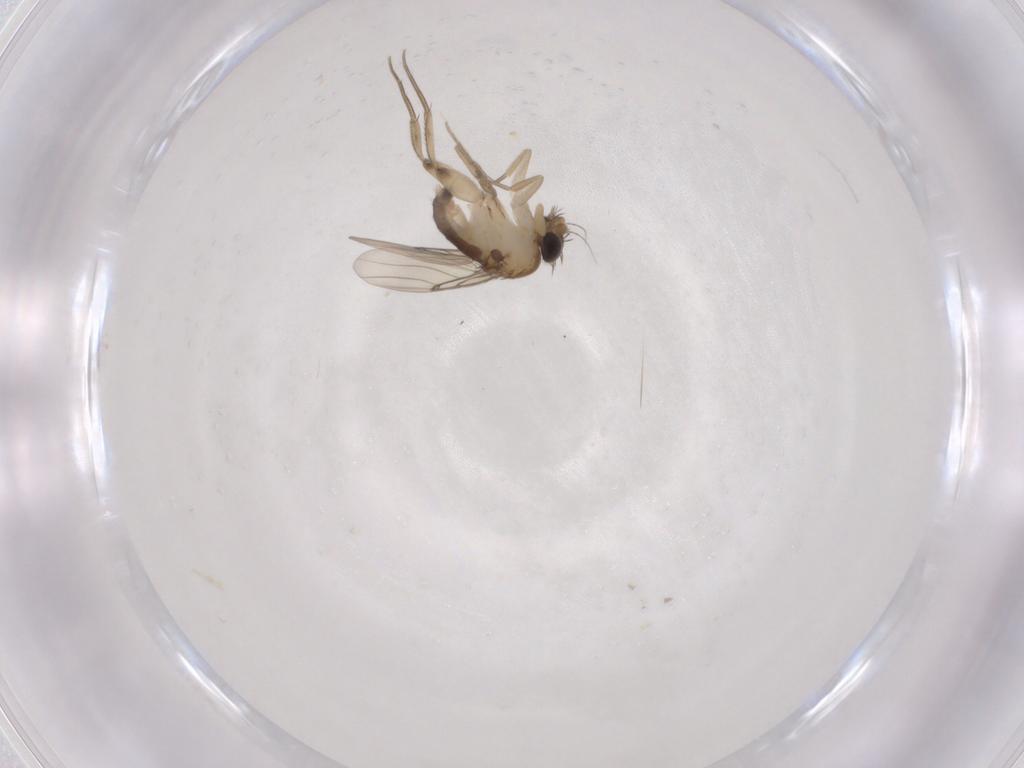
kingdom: Animalia
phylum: Arthropoda
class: Insecta
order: Diptera
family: Phoridae
